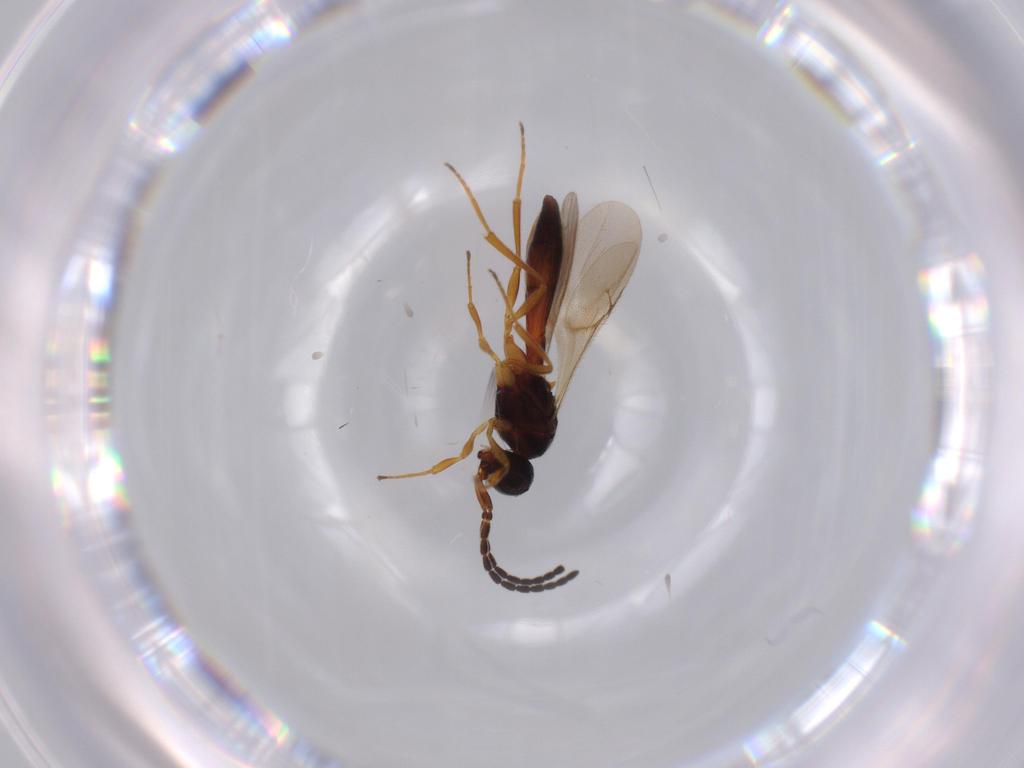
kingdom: Animalia
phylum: Arthropoda
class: Insecta
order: Hymenoptera
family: Scelionidae
